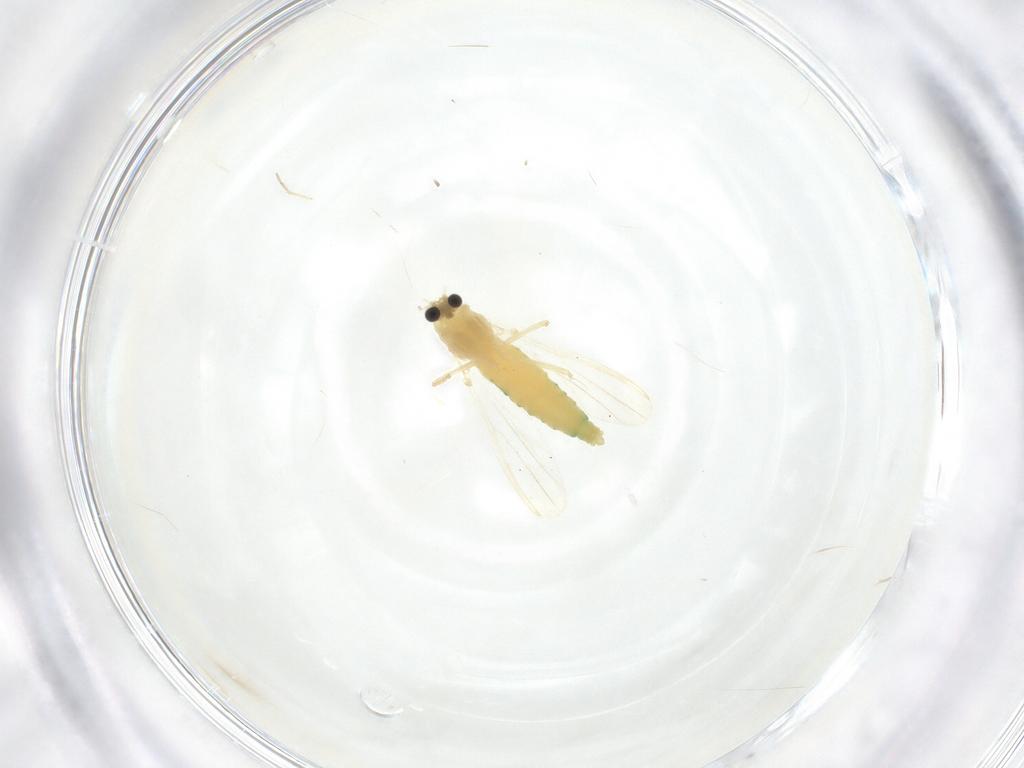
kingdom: Animalia
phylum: Arthropoda
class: Insecta
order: Diptera
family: Chironomidae
